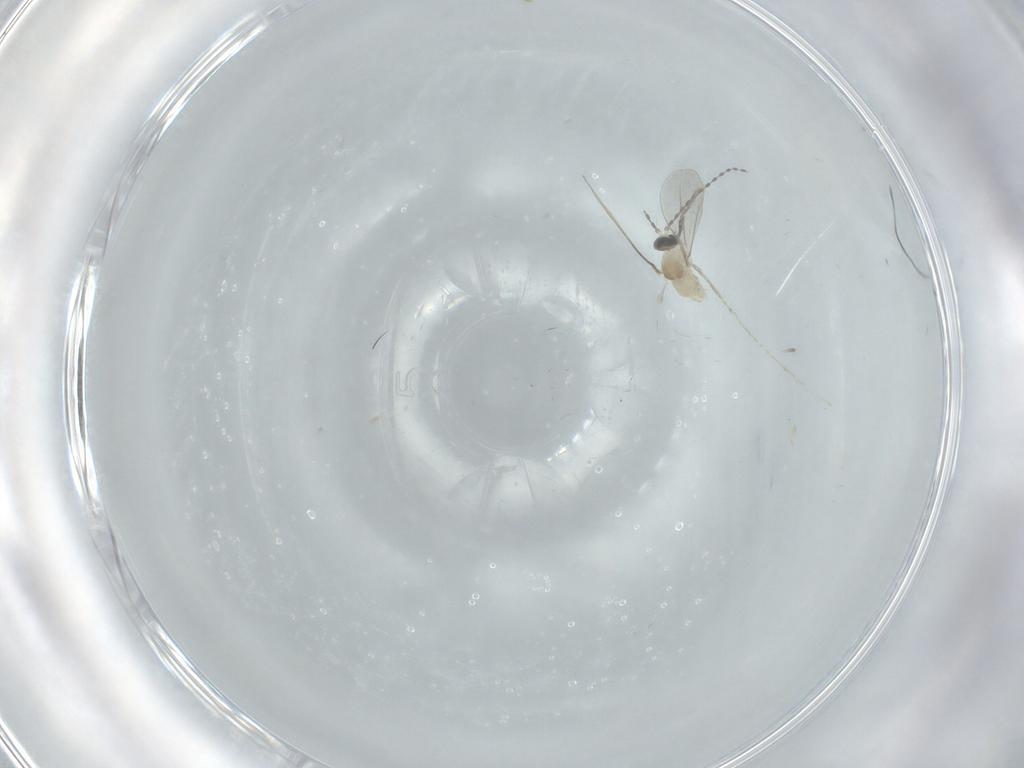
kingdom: Animalia
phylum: Arthropoda
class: Insecta
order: Diptera
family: Cecidomyiidae
